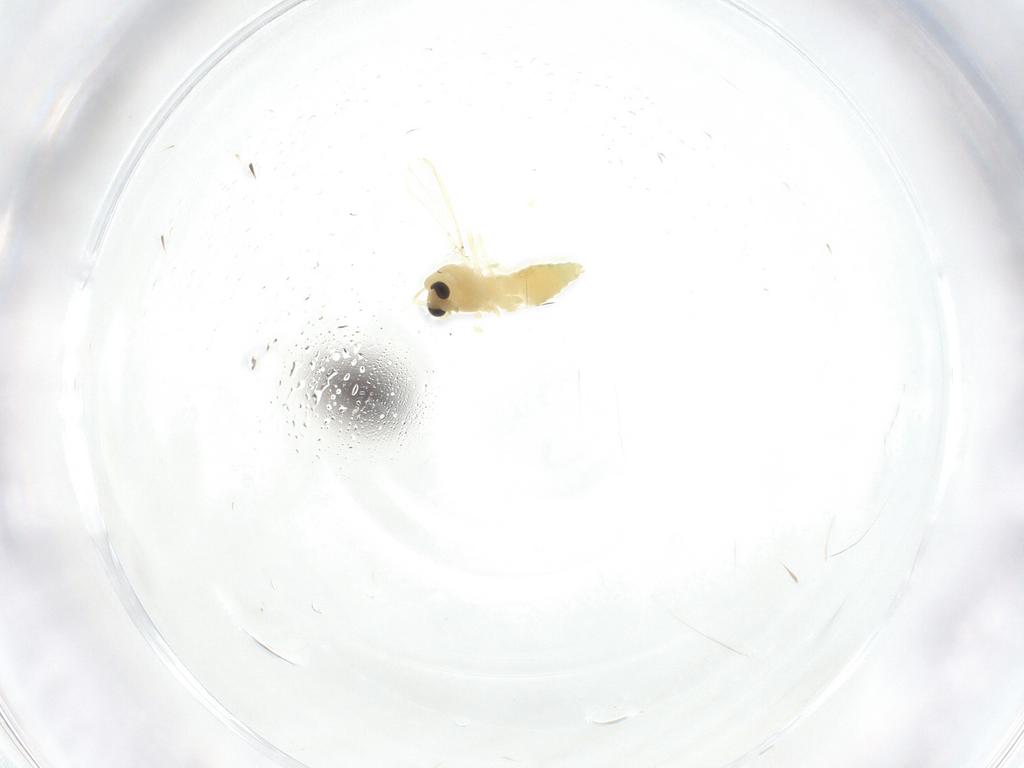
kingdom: Animalia
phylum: Arthropoda
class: Insecta
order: Diptera
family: Chironomidae
